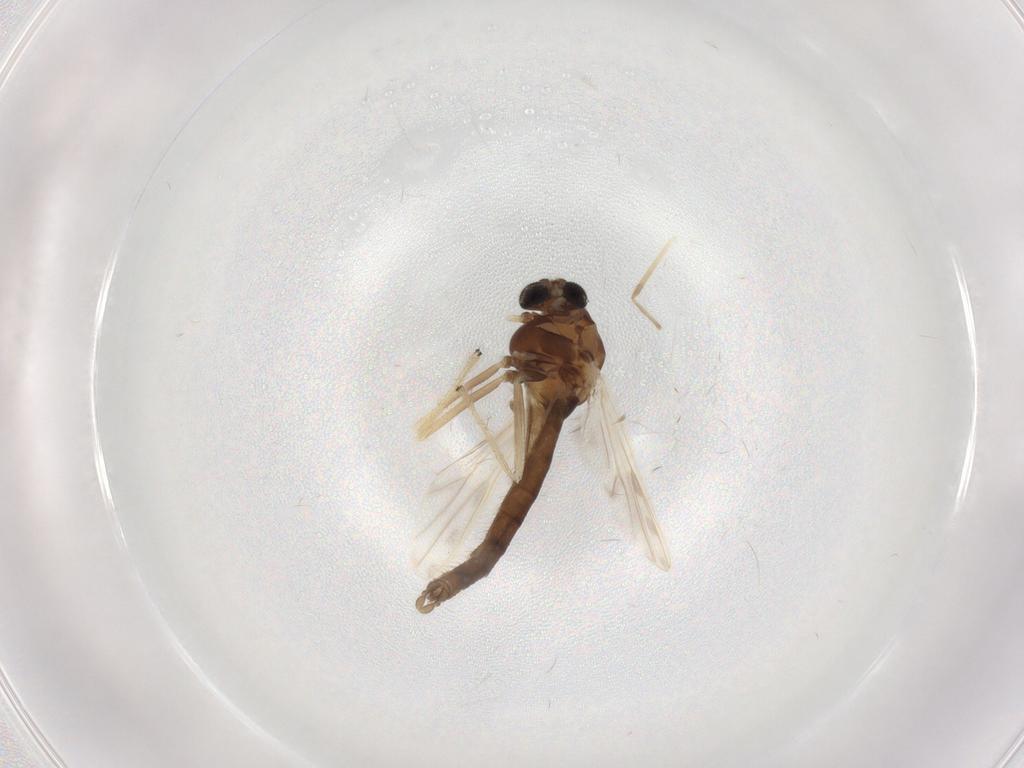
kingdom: Animalia
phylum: Arthropoda
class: Insecta
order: Diptera
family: Chironomidae
